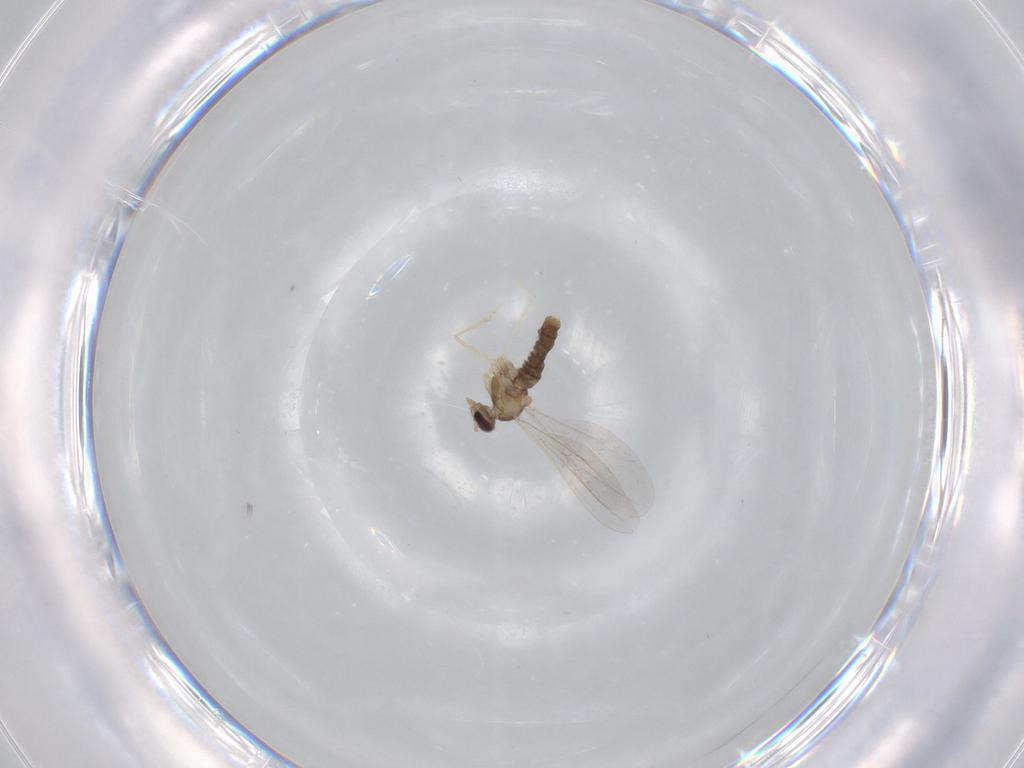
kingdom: Animalia
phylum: Arthropoda
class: Insecta
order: Diptera
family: Cecidomyiidae
